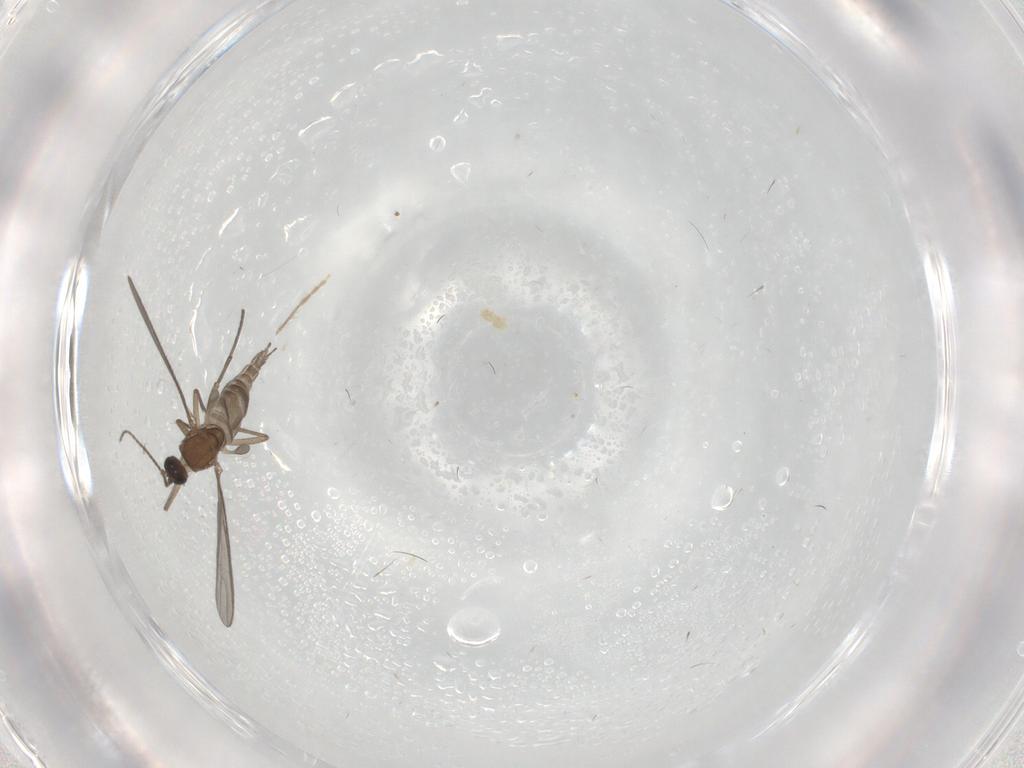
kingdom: Animalia
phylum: Arthropoda
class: Insecta
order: Diptera
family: Sciaridae
